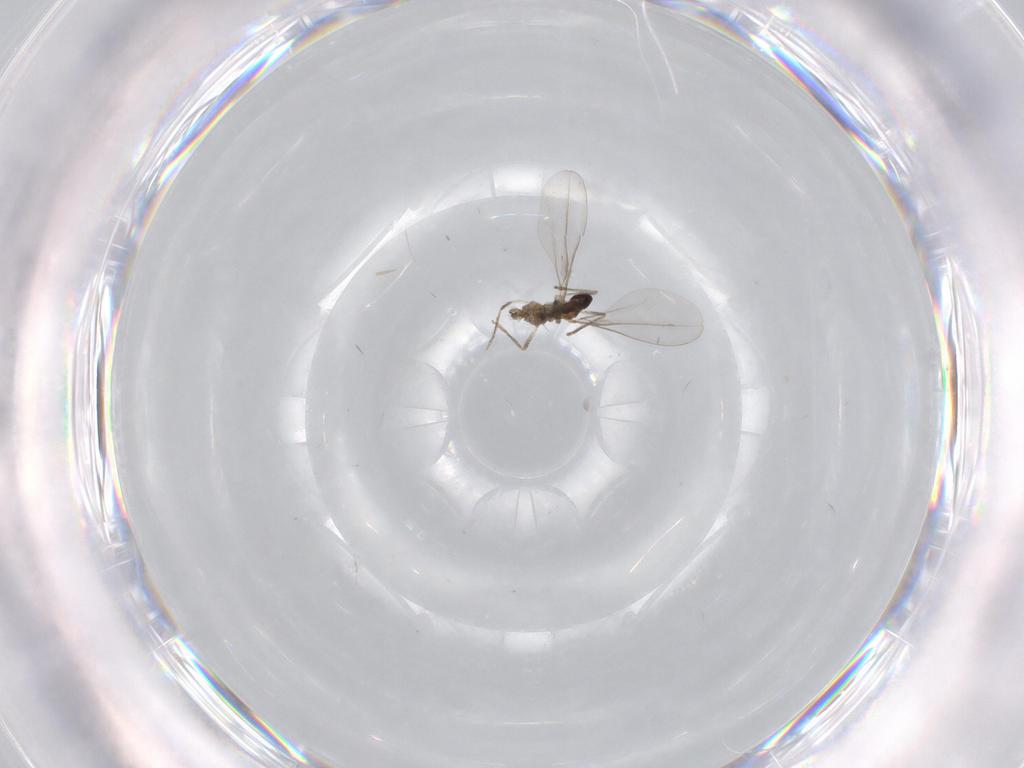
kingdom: Animalia
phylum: Arthropoda
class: Insecta
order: Diptera
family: Cecidomyiidae
